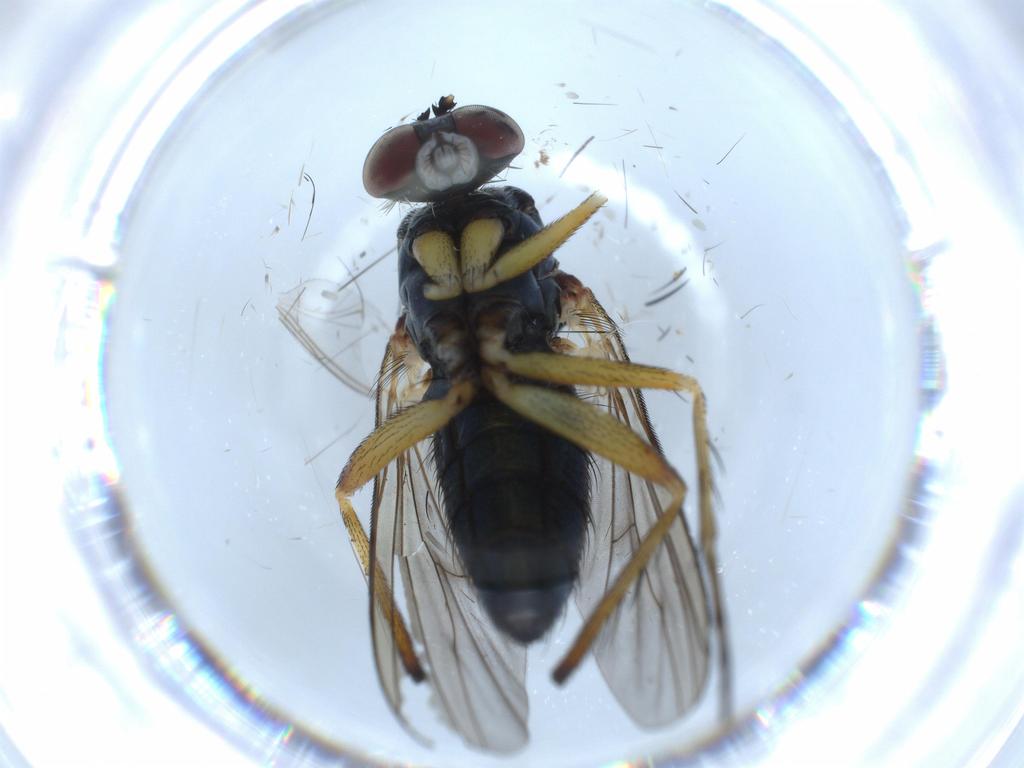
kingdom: Animalia
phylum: Arthropoda
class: Insecta
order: Diptera
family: Dolichopodidae
